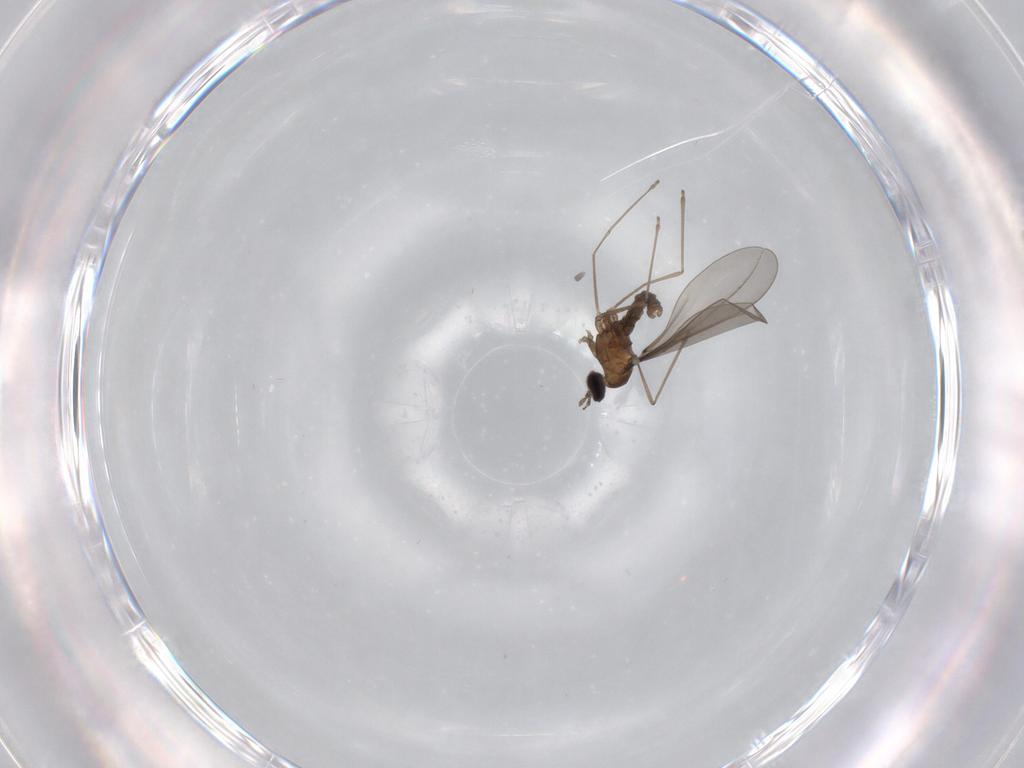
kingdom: Animalia
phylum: Arthropoda
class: Insecta
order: Diptera
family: Cecidomyiidae
